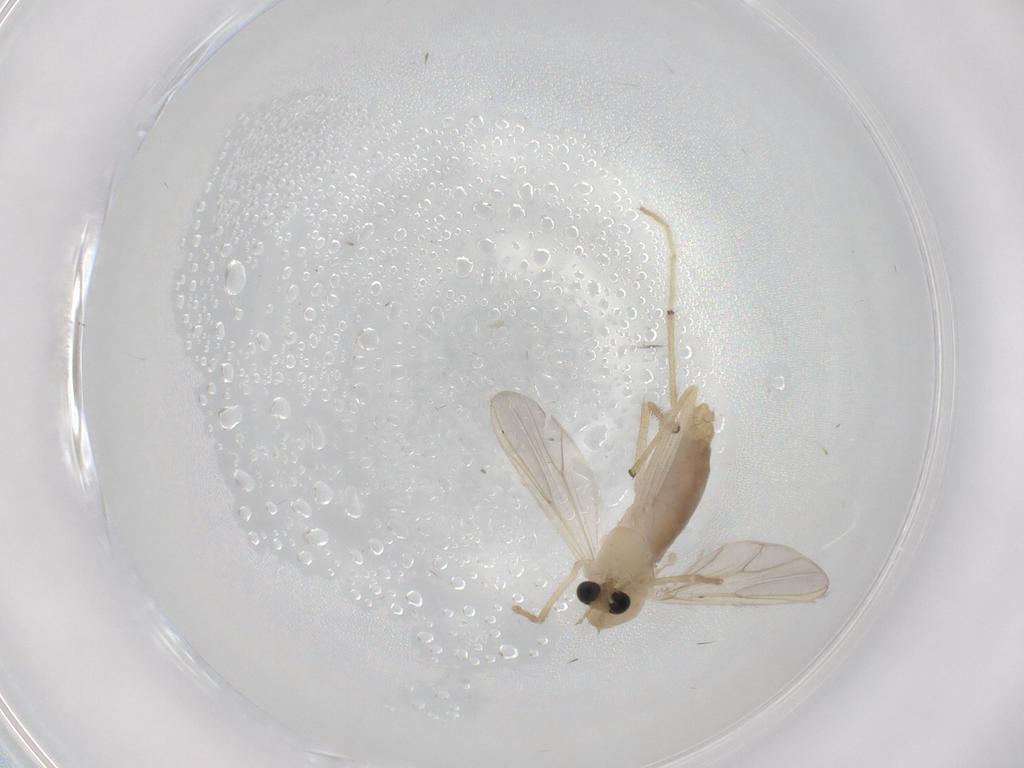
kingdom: Animalia
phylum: Arthropoda
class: Insecta
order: Diptera
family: Chironomidae
